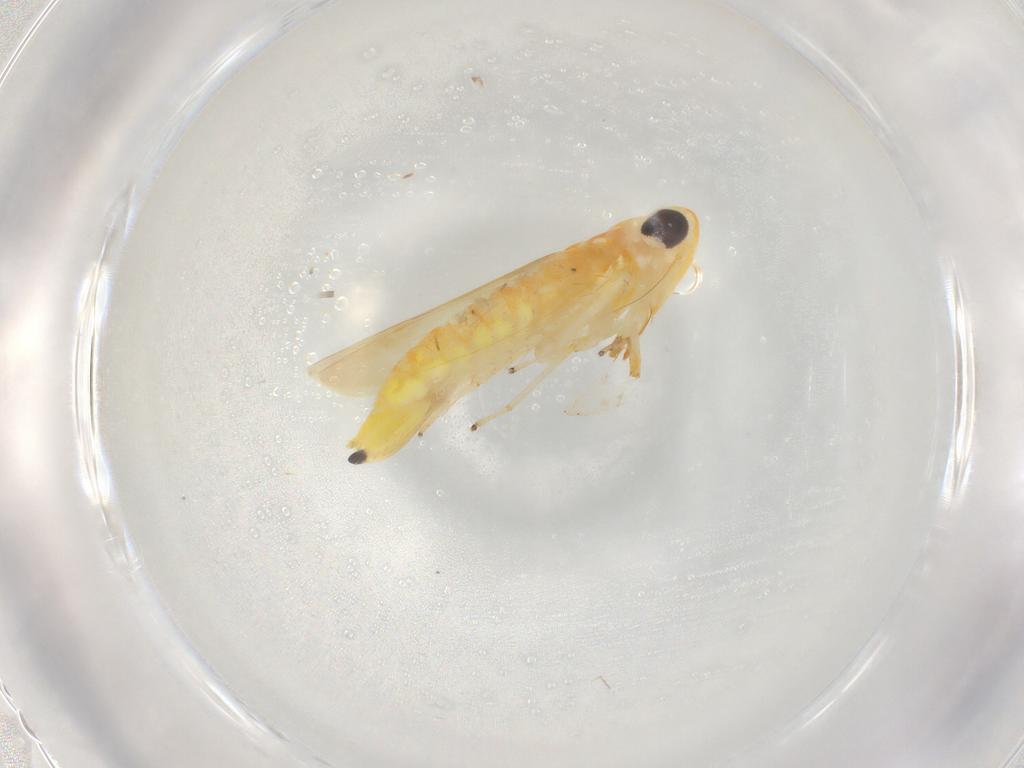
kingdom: Animalia
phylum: Arthropoda
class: Insecta
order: Hemiptera
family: Cicadellidae
